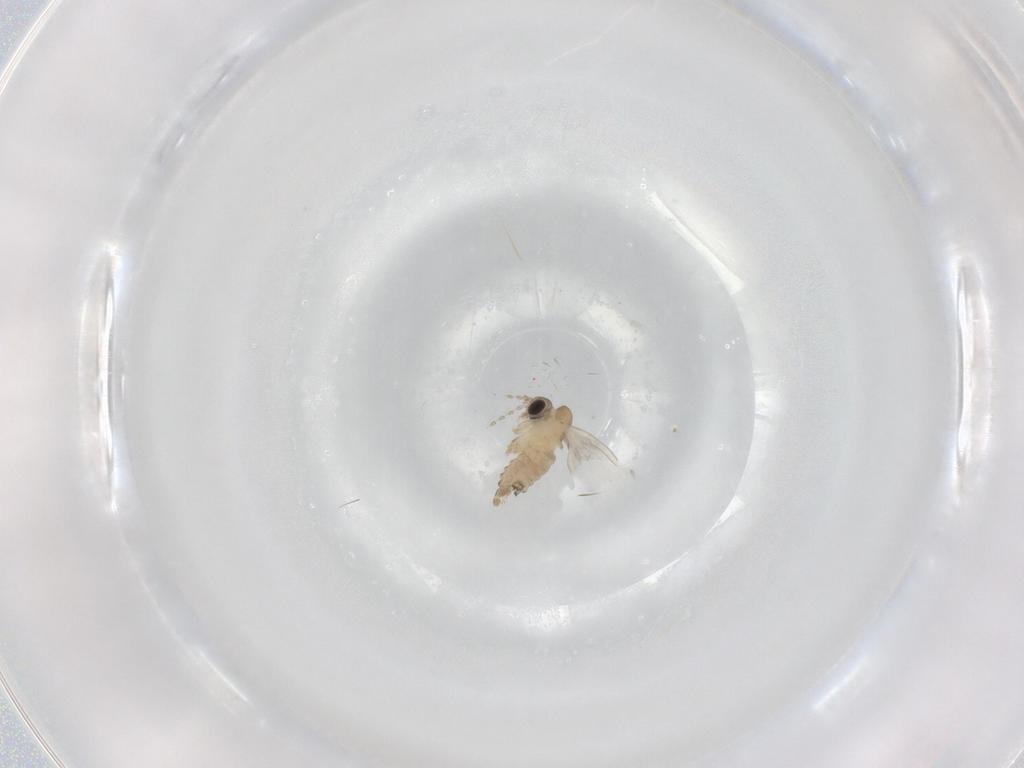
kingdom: Animalia
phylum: Arthropoda
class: Insecta
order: Diptera
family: Psychodidae
